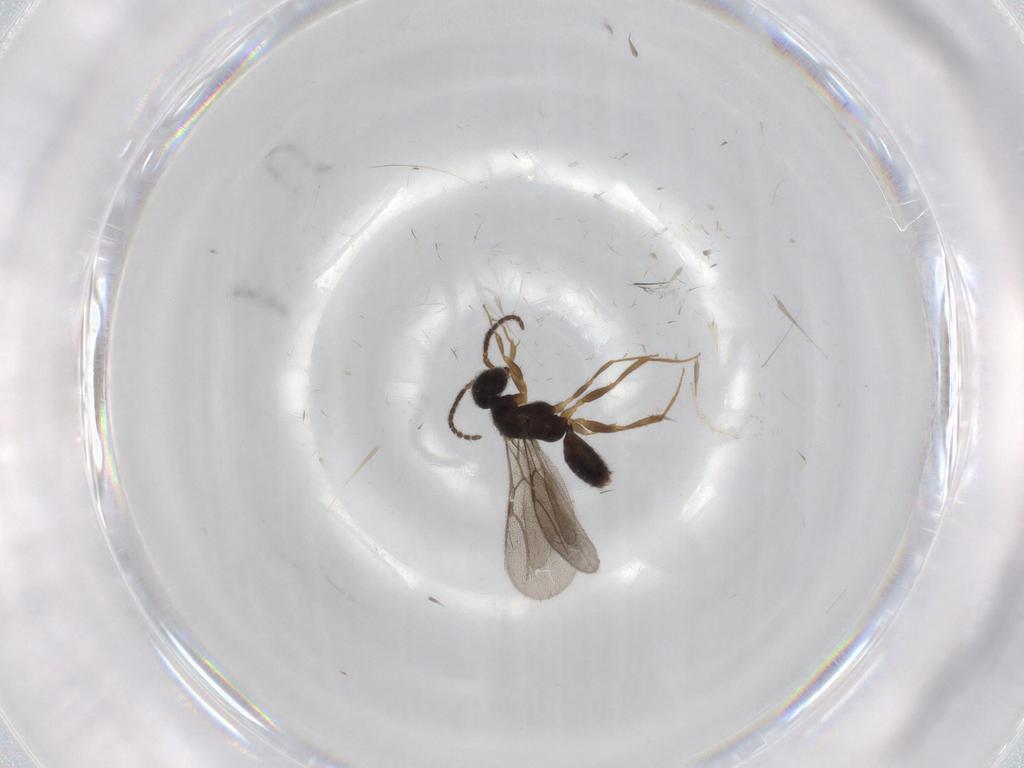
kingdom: Animalia
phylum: Arthropoda
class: Insecta
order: Hymenoptera
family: Bethylidae
